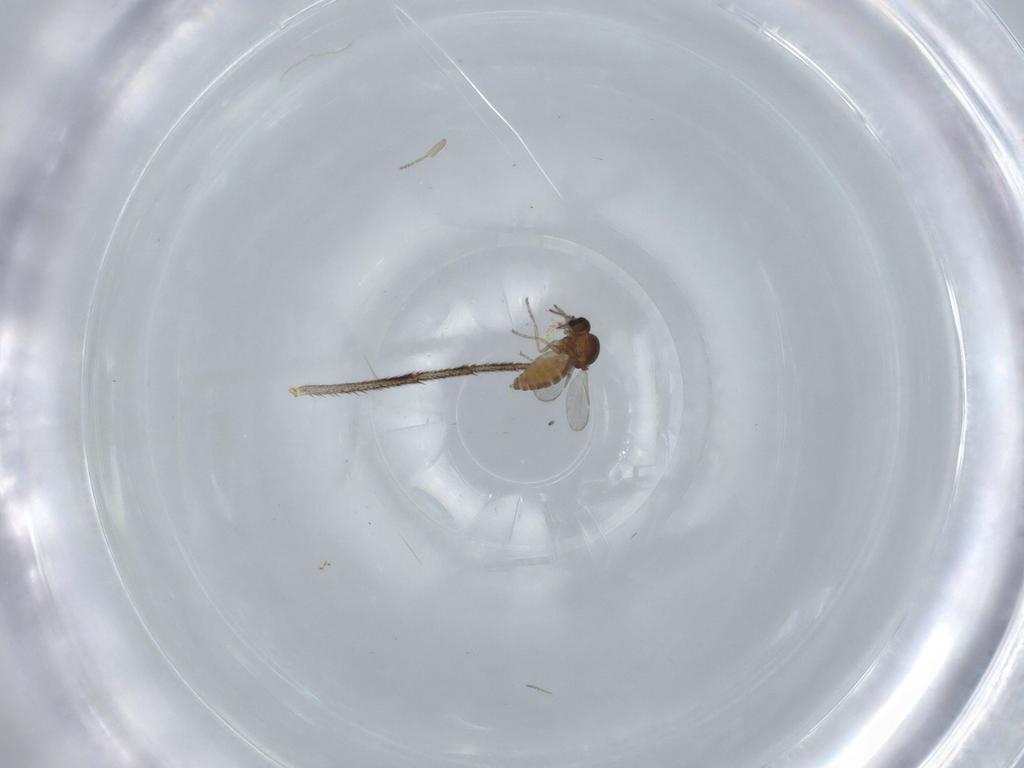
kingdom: Animalia
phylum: Arthropoda
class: Insecta
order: Diptera
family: Ceratopogonidae
